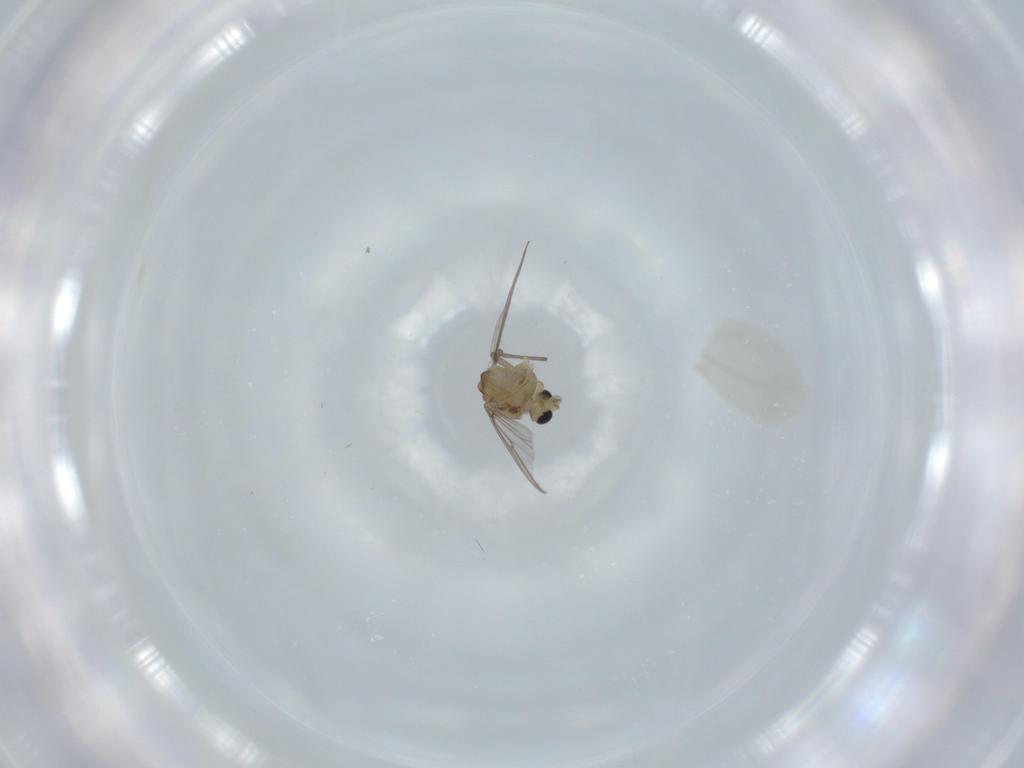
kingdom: Animalia
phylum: Arthropoda
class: Insecta
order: Diptera
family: Chironomidae
